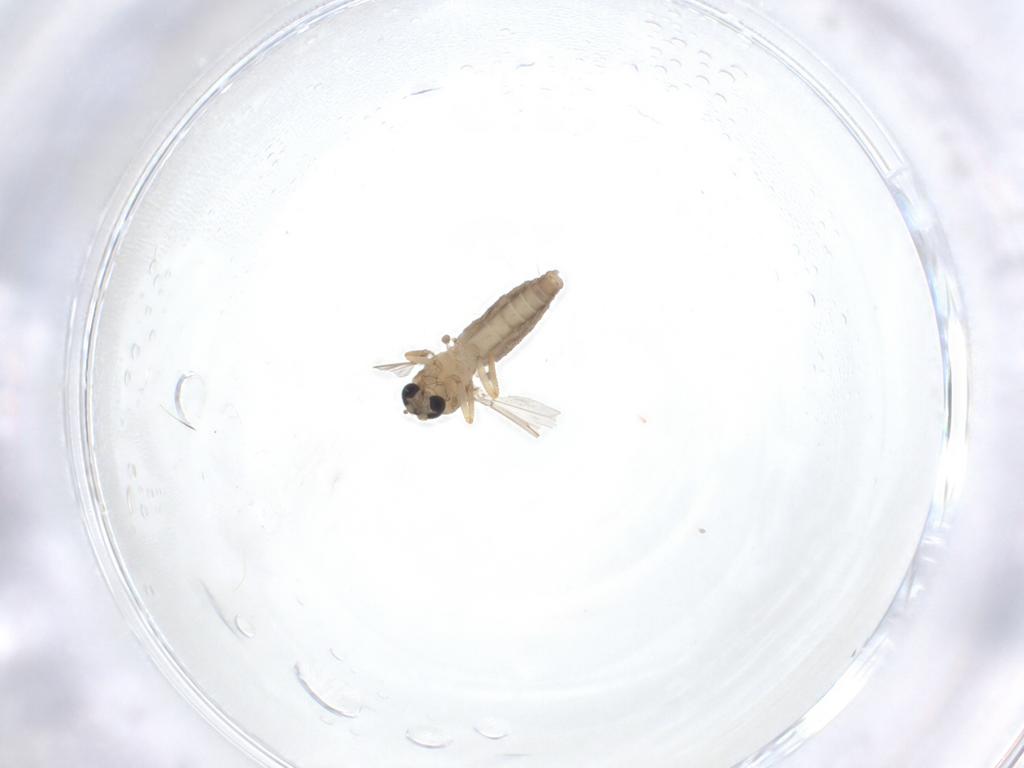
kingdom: Animalia
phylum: Arthropoda
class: Insecta
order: Diptera
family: Ceratopogonidae
